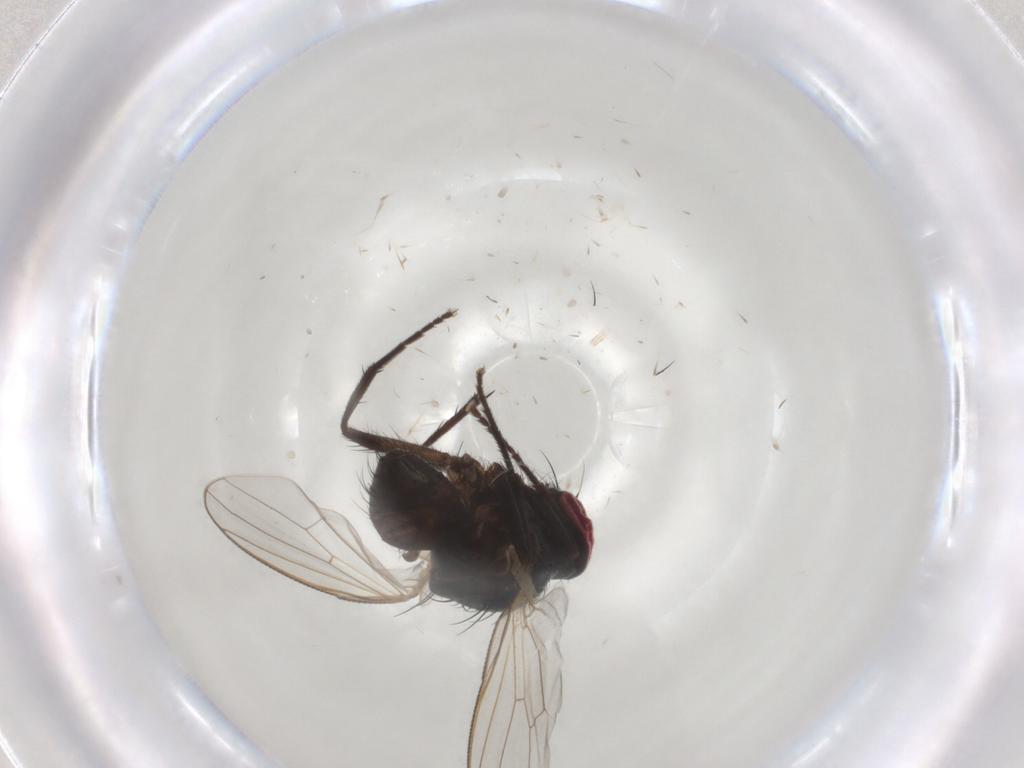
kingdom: Animalia
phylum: Arthropoda
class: Insecta
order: Diptera
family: Muscidae
